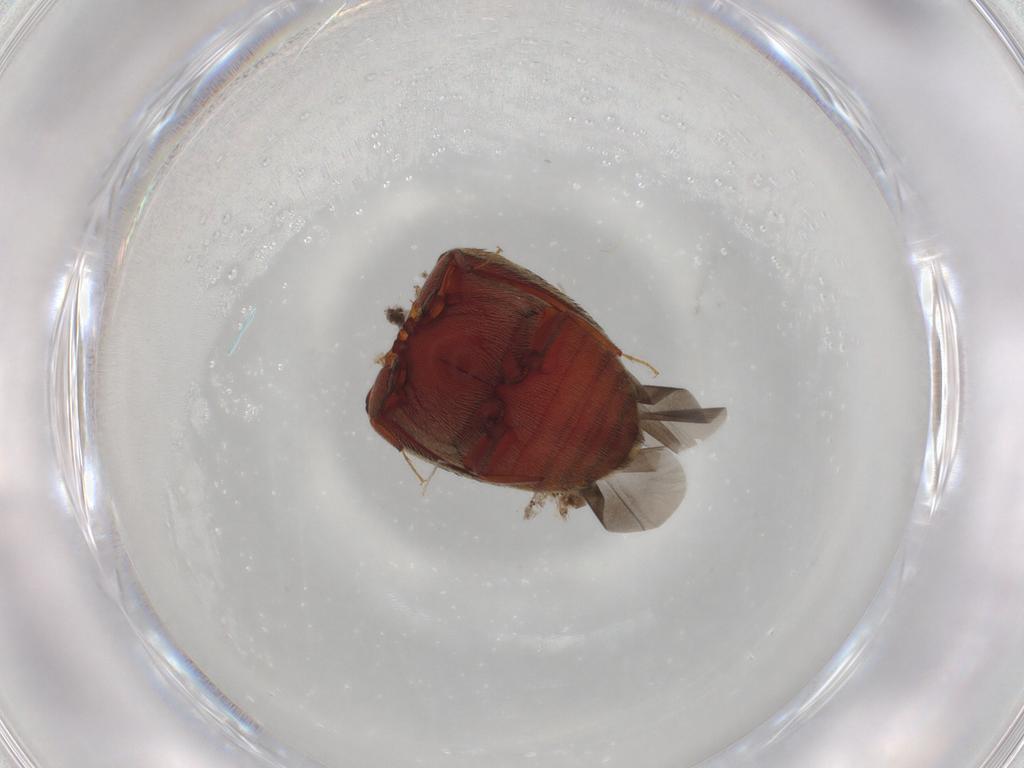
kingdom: Animalia
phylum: Arthropoda
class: Insecta
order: Coleoptera
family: Dermestidae
